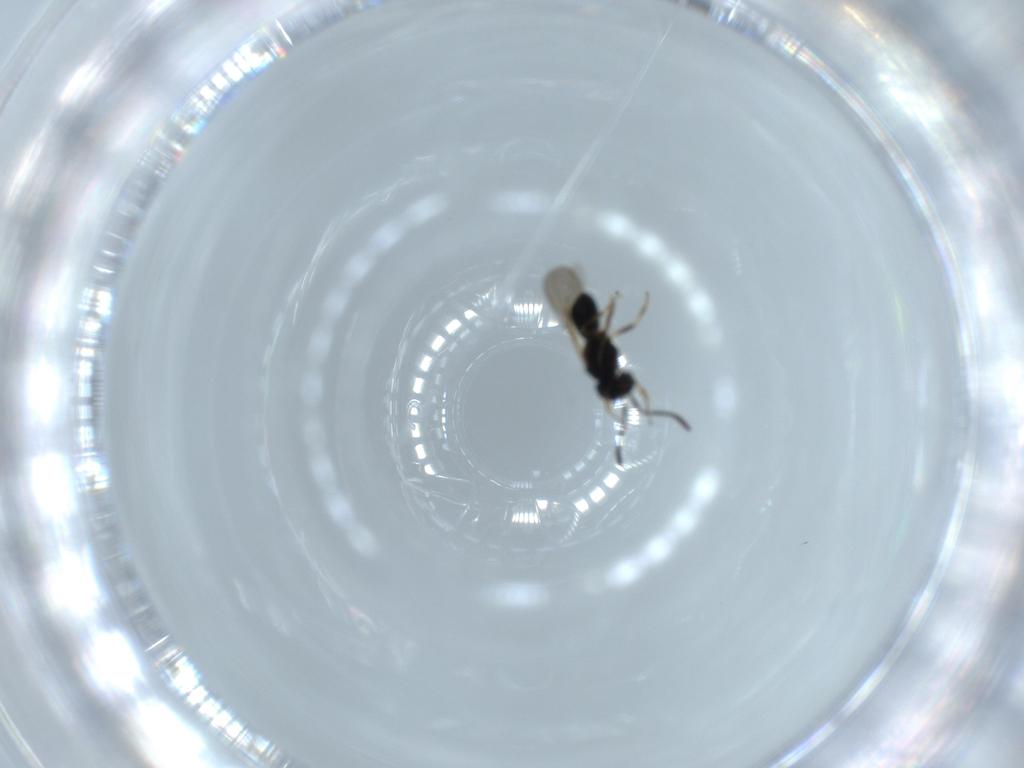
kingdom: Animalia
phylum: Arthropoda
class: Insecta
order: Hymenoptera
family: Scelionidae
